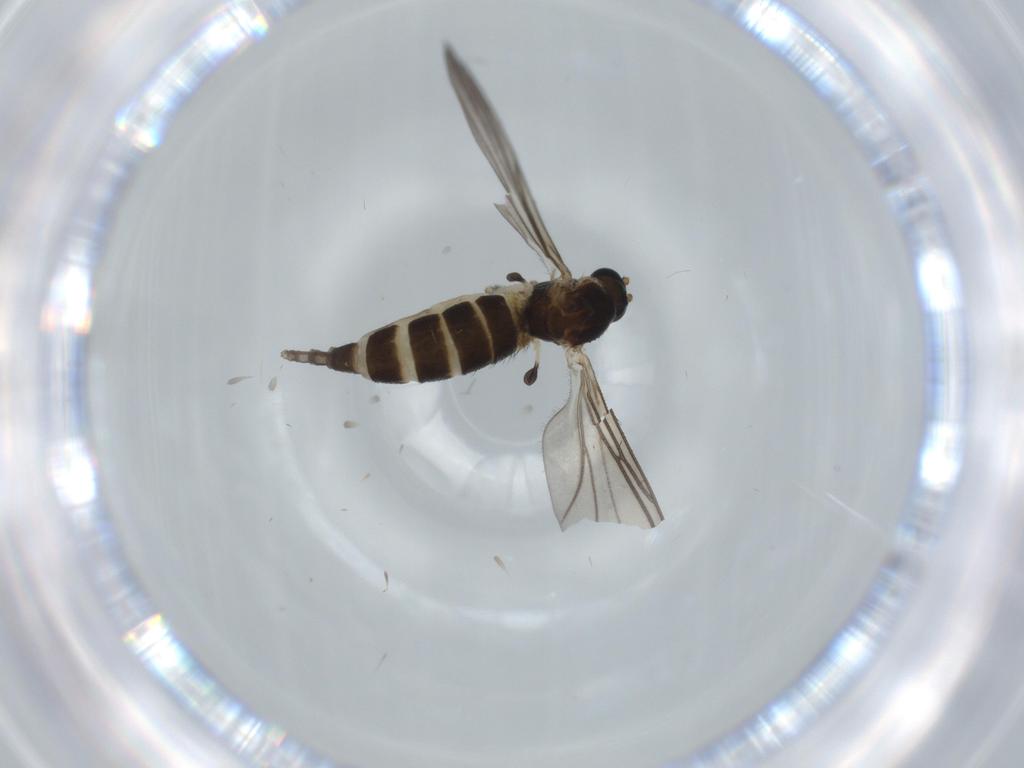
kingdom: Animalia
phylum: Arthropoda
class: Insecta
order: Diptera
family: Sciaridae
